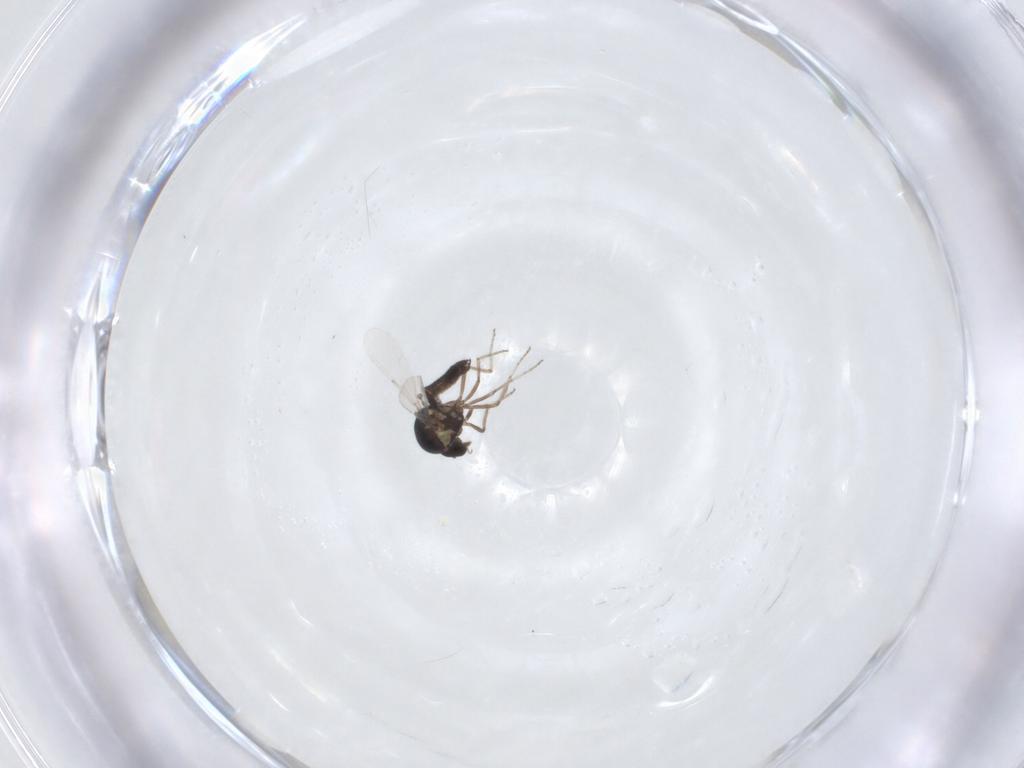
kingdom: Animalia
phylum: Arthropoda
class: Insecta
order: Diptera
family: Ceratopogonidae
